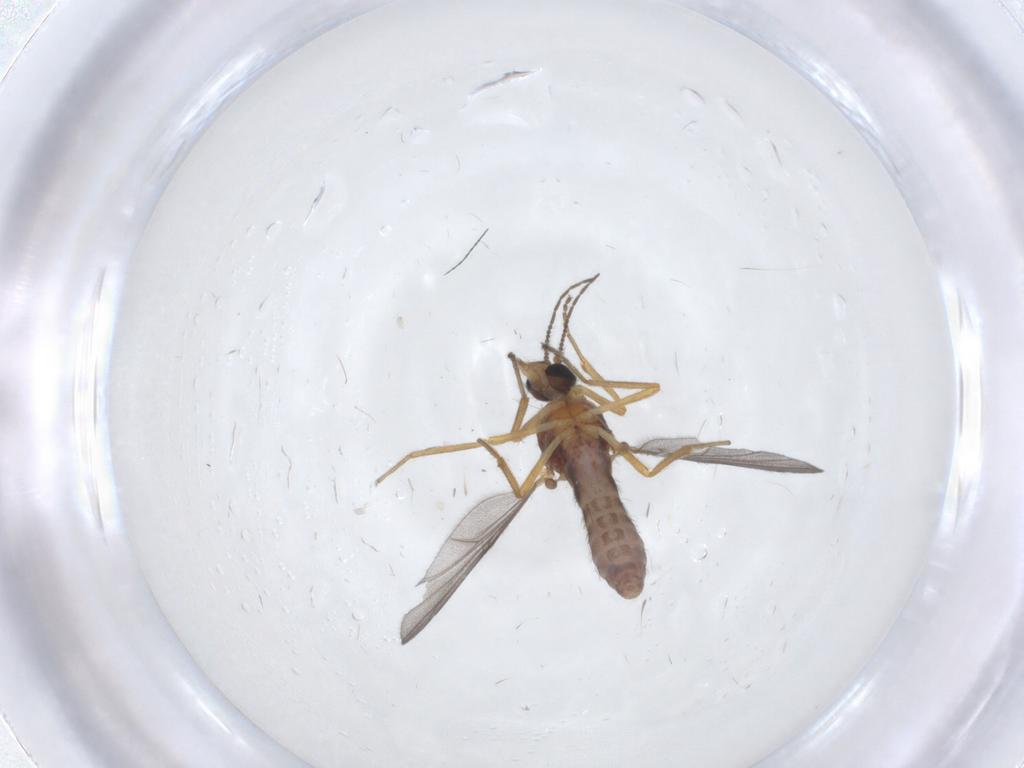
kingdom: Animalia
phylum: Arthropoda
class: Insecta
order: Diptera
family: Ceratopogonidae
